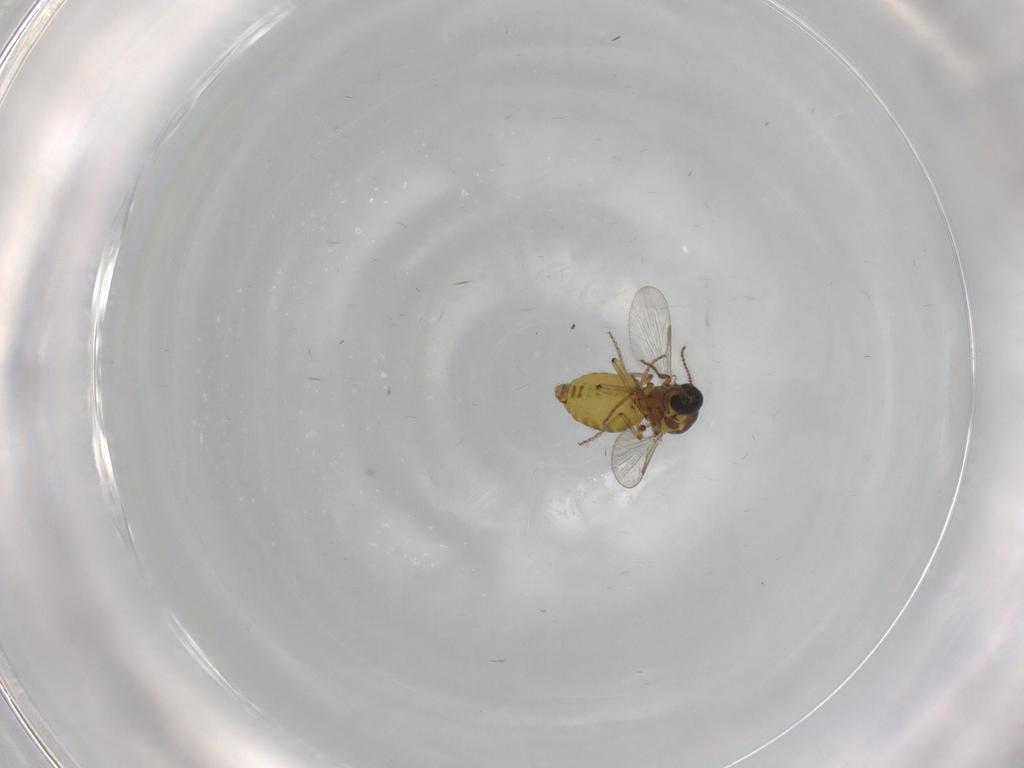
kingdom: Animalia
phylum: Arthropoda
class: Insecta
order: Diptera
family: Ceratopogonidae
